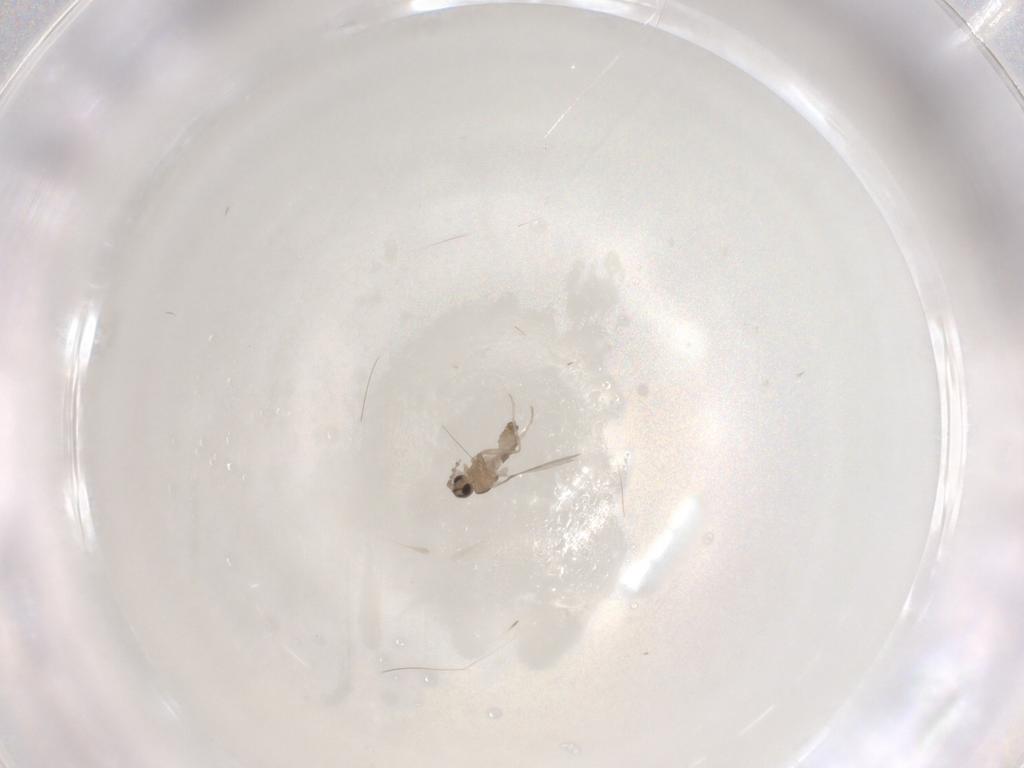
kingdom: Animalia
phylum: Arthropoda
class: Insecta
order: Diptera
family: Cecidomyiidae
